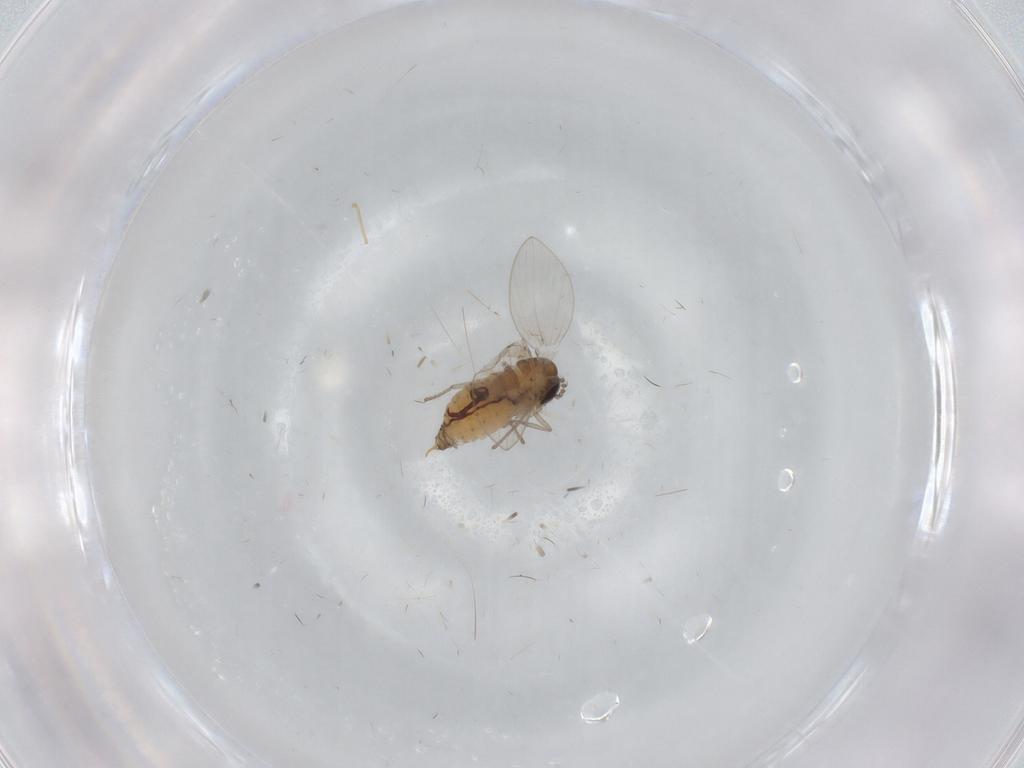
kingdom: Animalia
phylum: Arthropoda
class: Insecta
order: Diptera
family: Psychodidae
